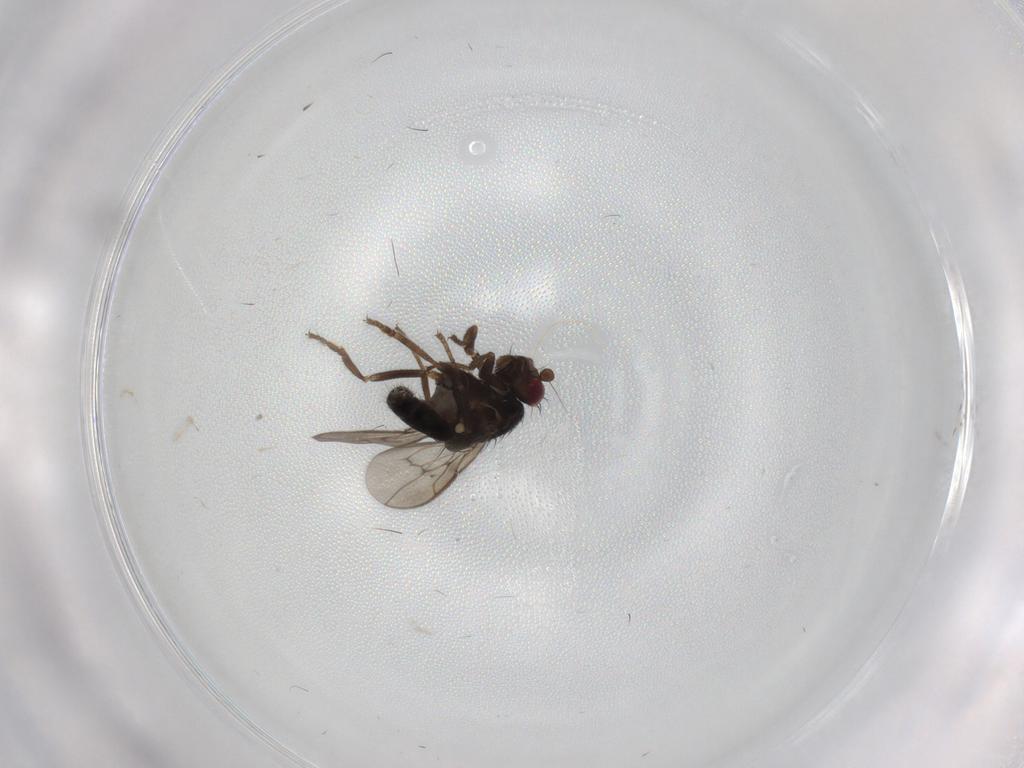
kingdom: Animalia
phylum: Arthropoda
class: Insecta
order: Diptera
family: Sphaeroceridae
